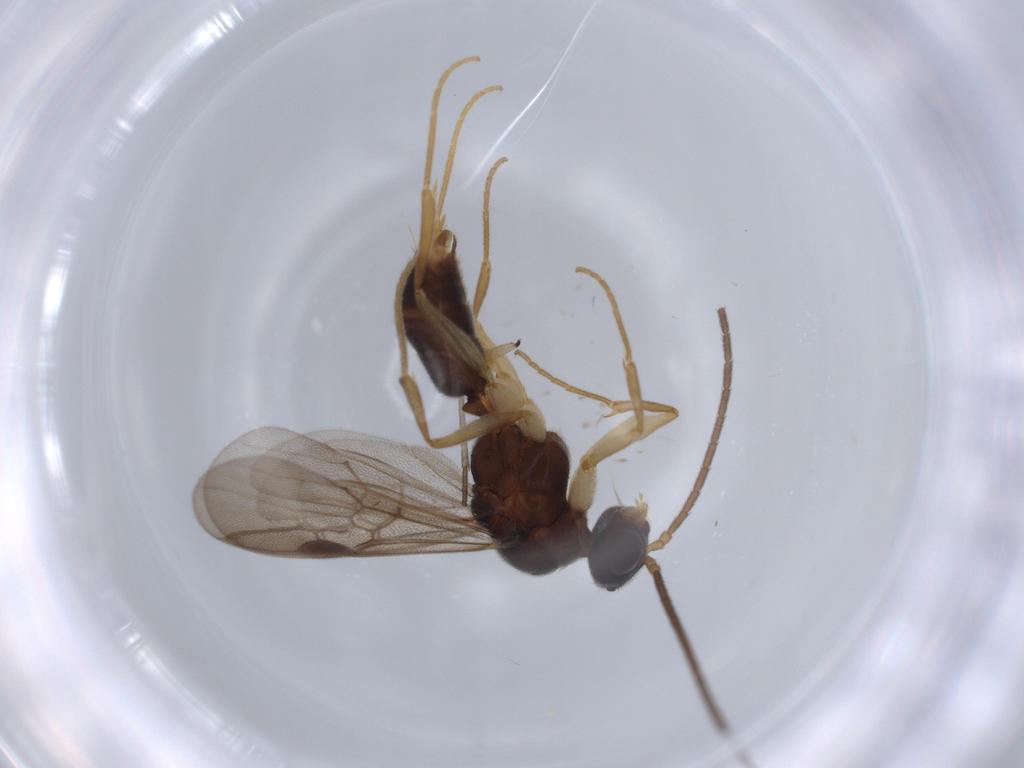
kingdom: Animalia
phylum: Arthropoda
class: Insecta
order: Hymenoptera
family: Formicidae
